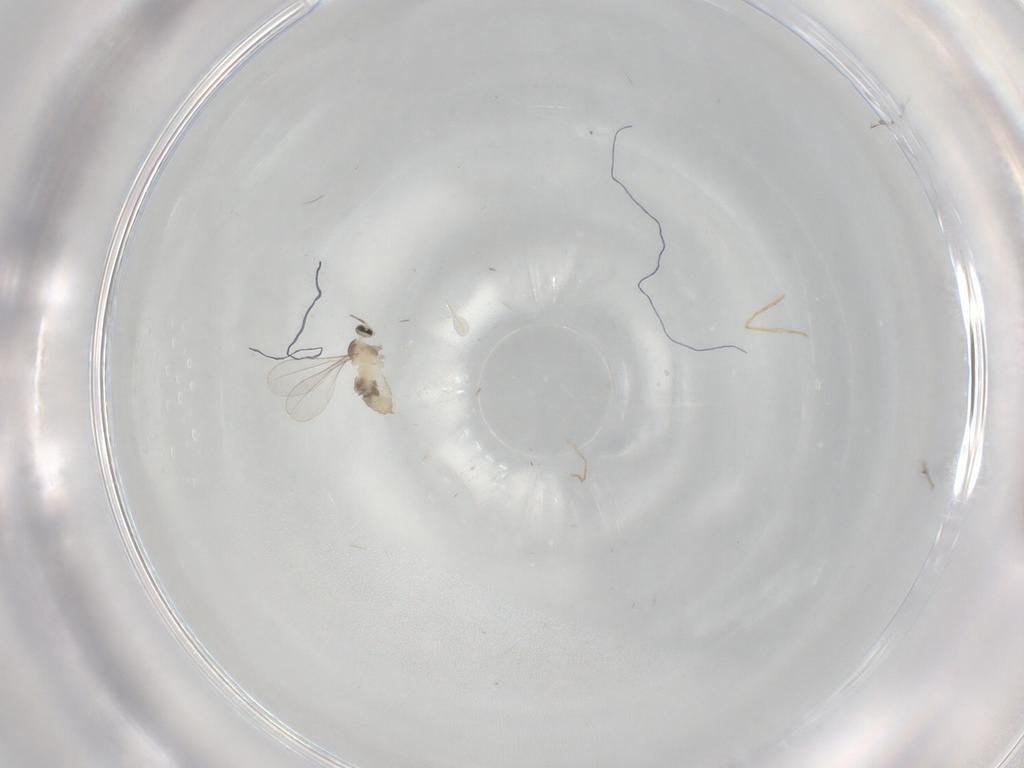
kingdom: Animalia
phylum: Arthropoda
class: Insecta
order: Diptera
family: Cecidomyiidae
